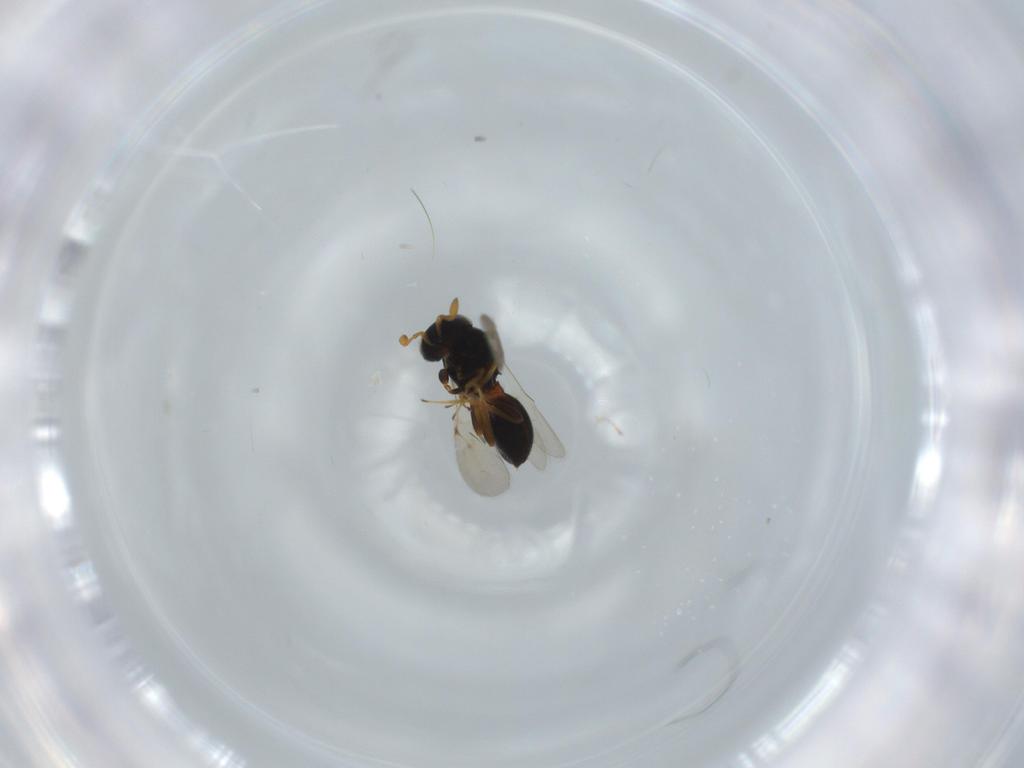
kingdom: Animalia
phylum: Arthropoda
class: Insecta
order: Hymenoptera
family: Scelionidae
